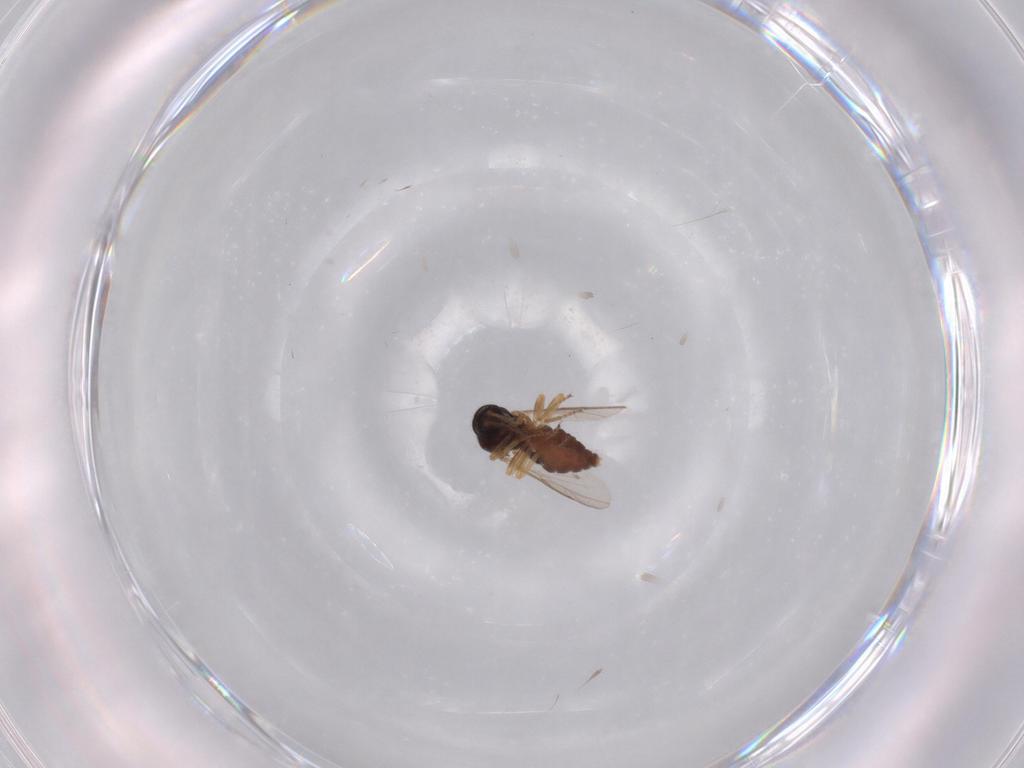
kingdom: Animalia
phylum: Arthropoda
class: Insecta
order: Diptera
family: Ceratopogonidae
